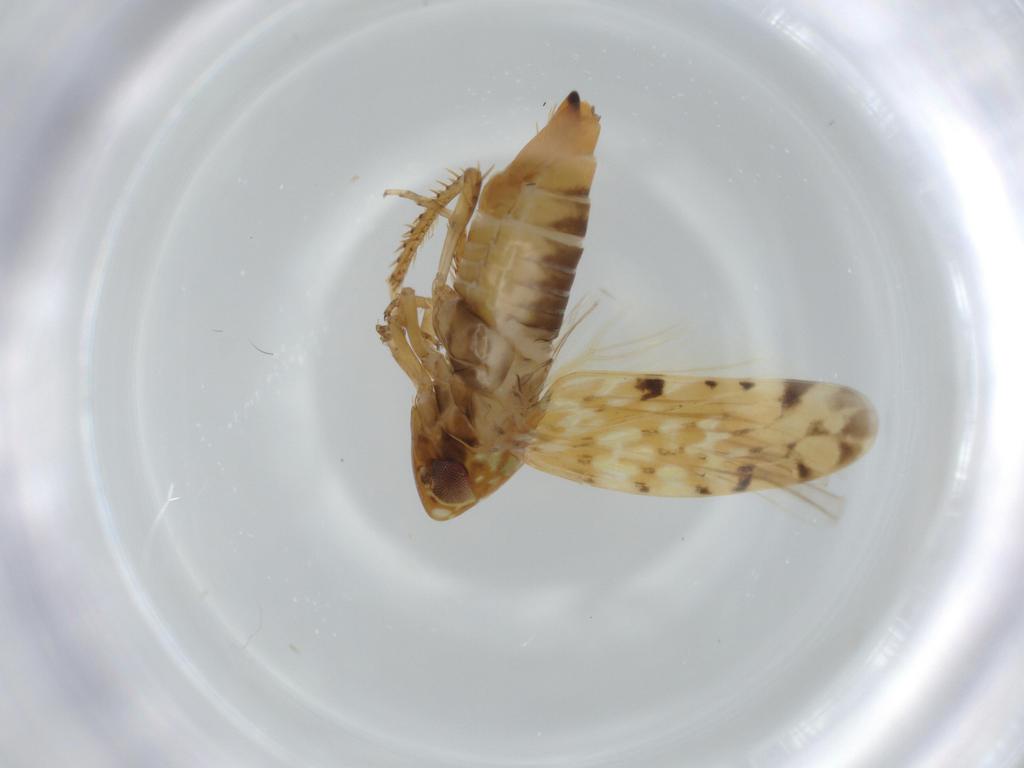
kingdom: Animalia
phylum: Arthropoda
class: Insecta
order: Hemiptera
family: Cicadellidae
